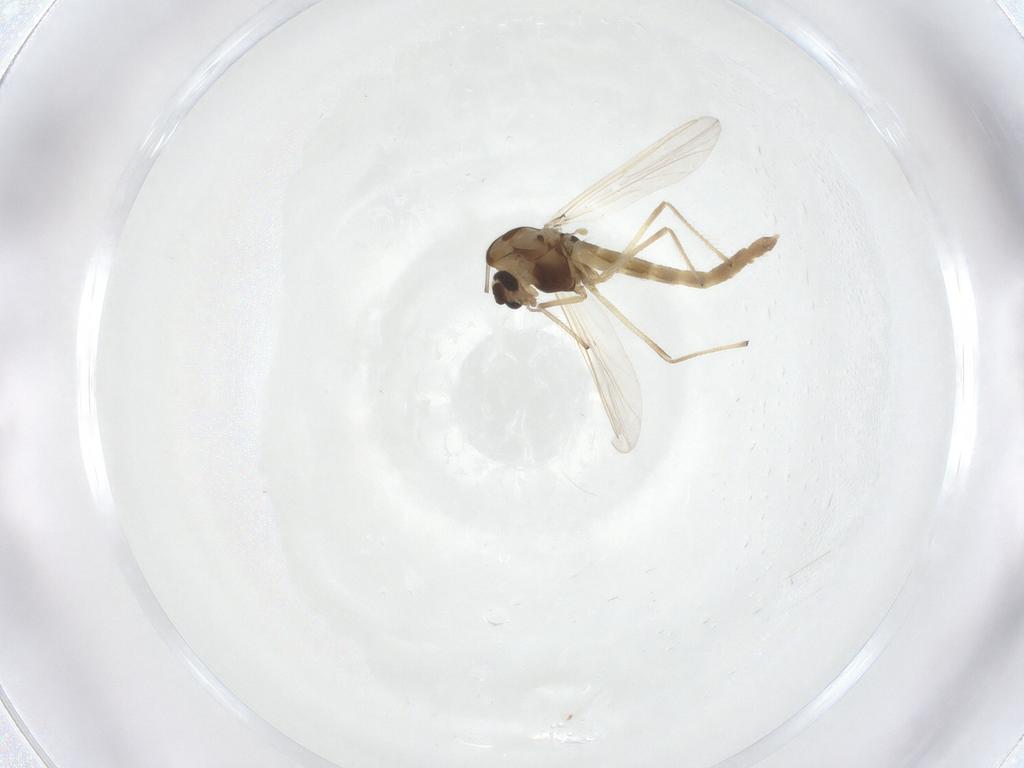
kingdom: Animalia
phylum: Arthropoda
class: Insecta
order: Diptera
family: Chironomidae
